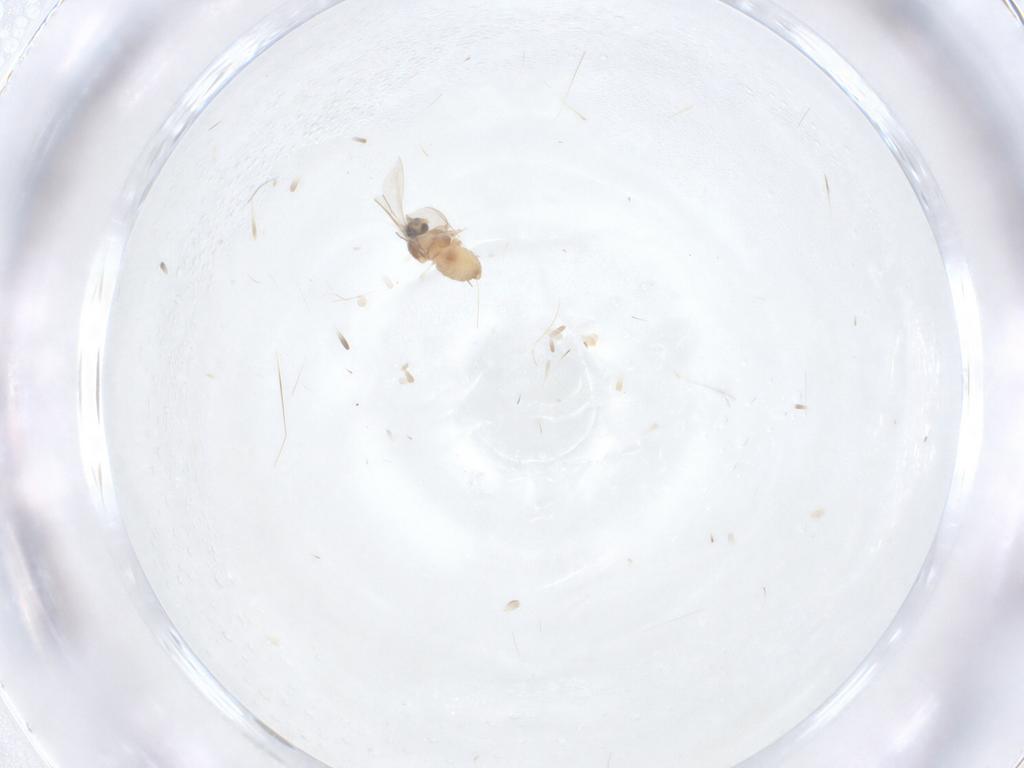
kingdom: Animalia
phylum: Arthropoda
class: Insecta
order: Diptera
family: Cecidomyiidae
